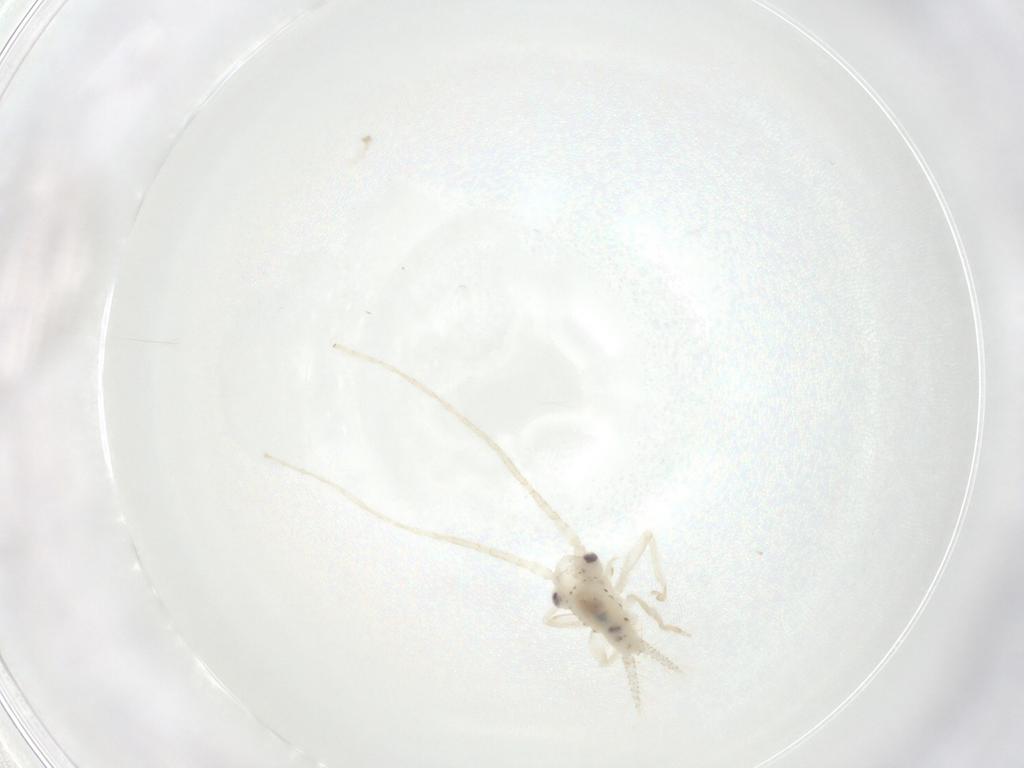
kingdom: Animalia
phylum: Arthropoda
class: Insecta
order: Orthoptera
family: Trigonidiidae
